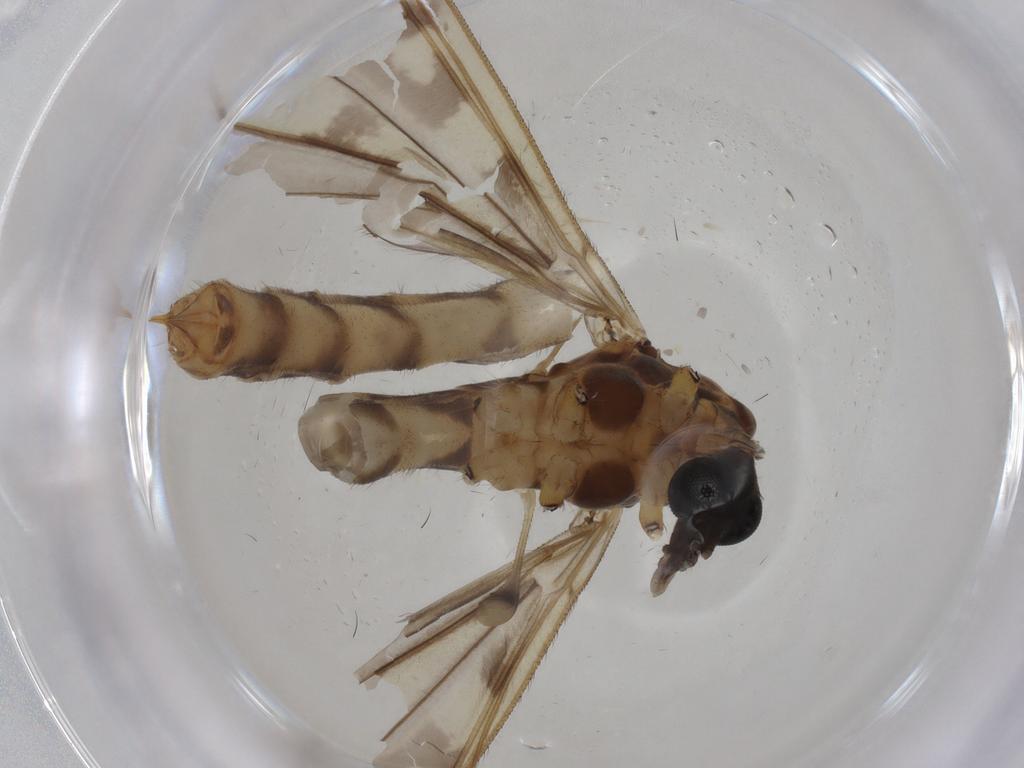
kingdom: Animalia
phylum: Arthropoda
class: Insecta
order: Diptera
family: Limoniidae
